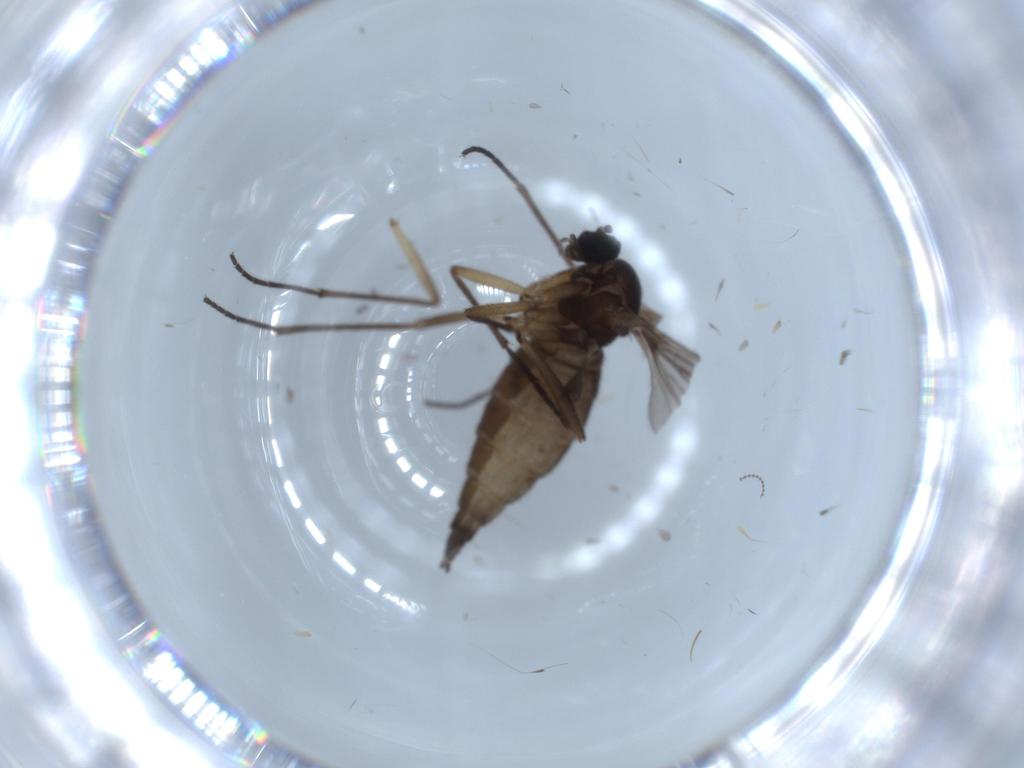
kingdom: Animalia
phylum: Arthropoda
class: Insecta
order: Diptera
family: Sciaridae
